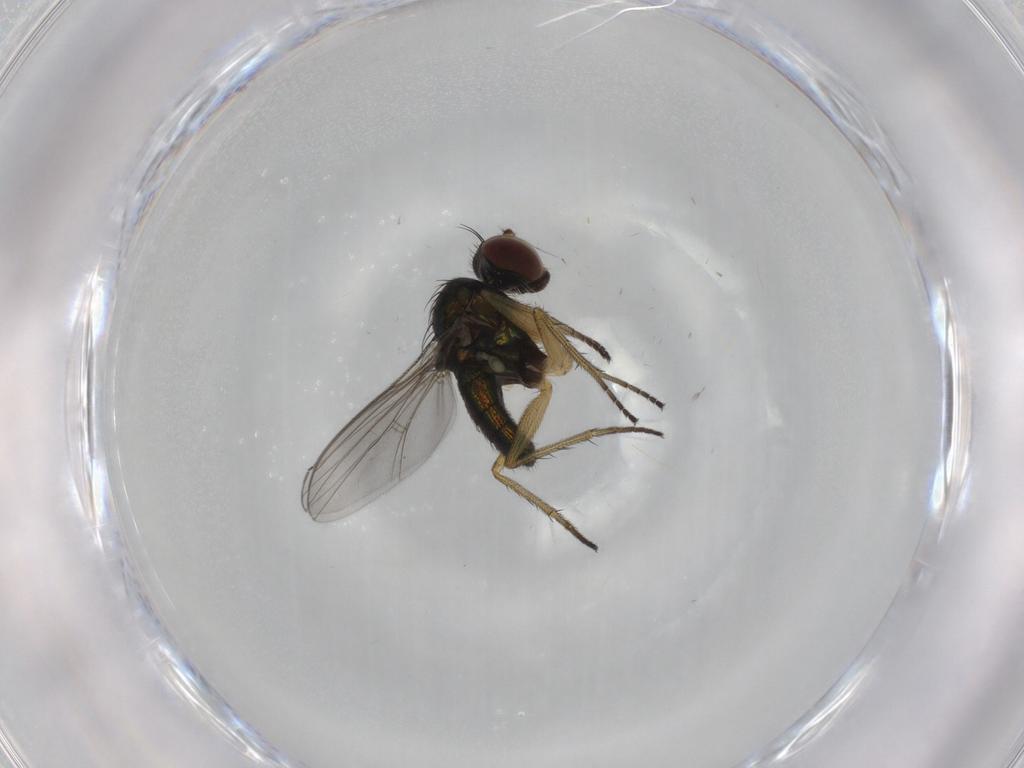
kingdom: Animalia
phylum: Arthropoda
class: Insecta
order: Diptera
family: Dolichopodidae
